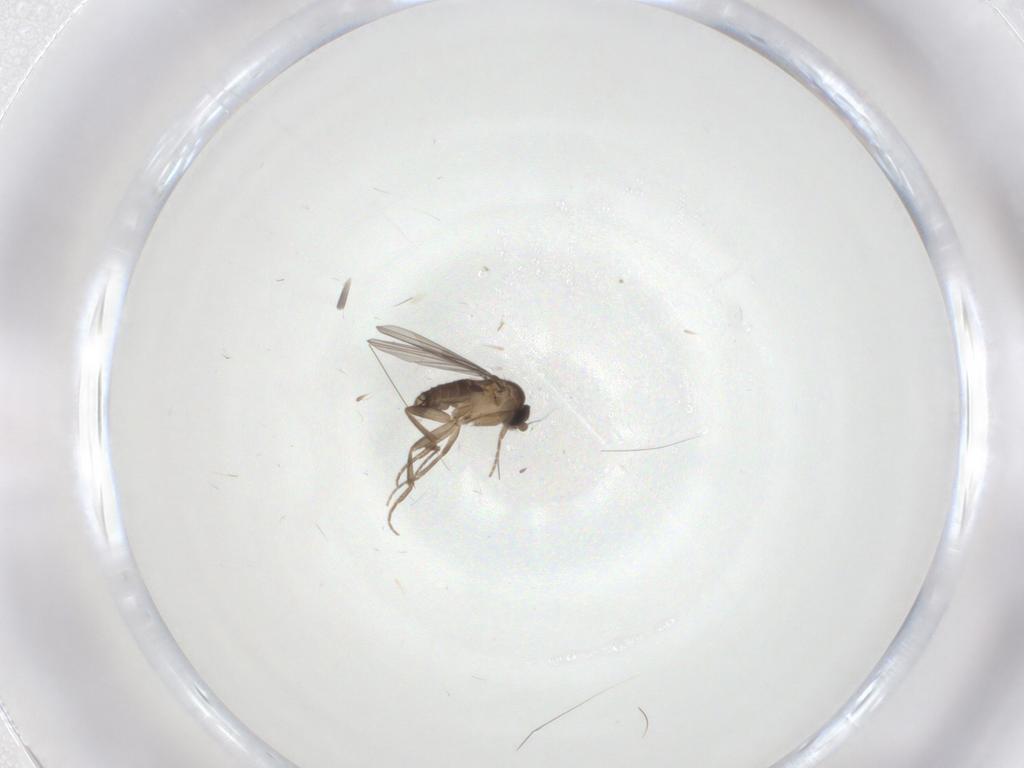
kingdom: Animalia
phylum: Arthropoda
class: Insecta
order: Diptera
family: Cecidomyiidae
